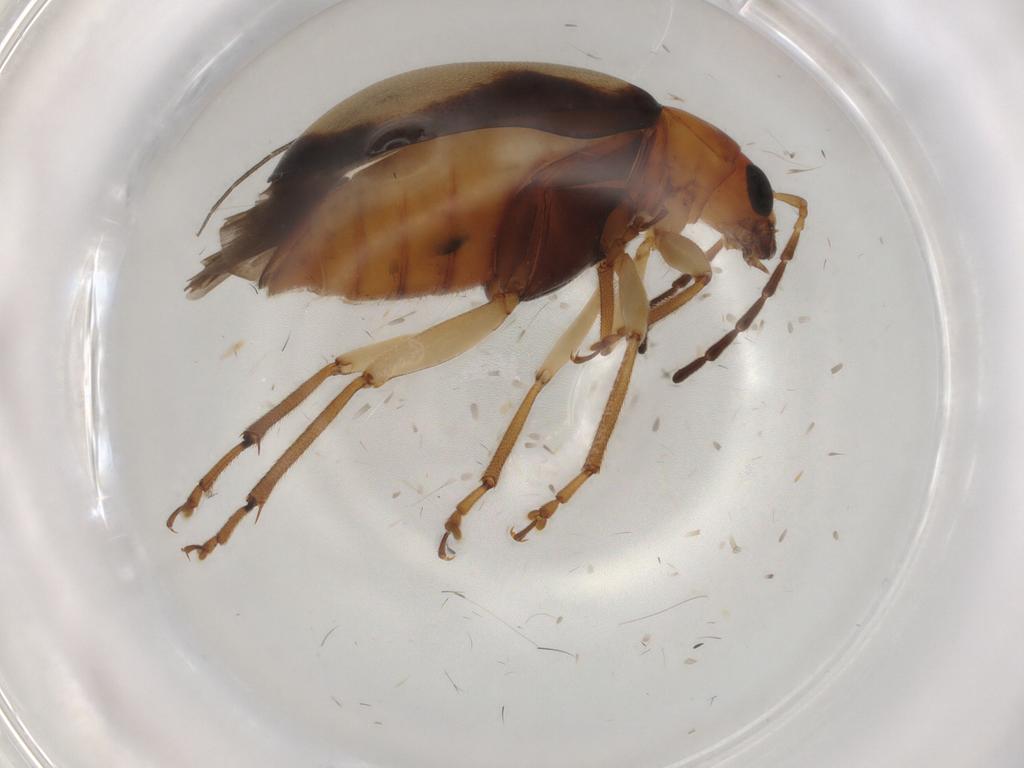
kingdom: Animalia
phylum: Arthropoda
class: Insecta
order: Coleoptera
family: Chrysomelidae
